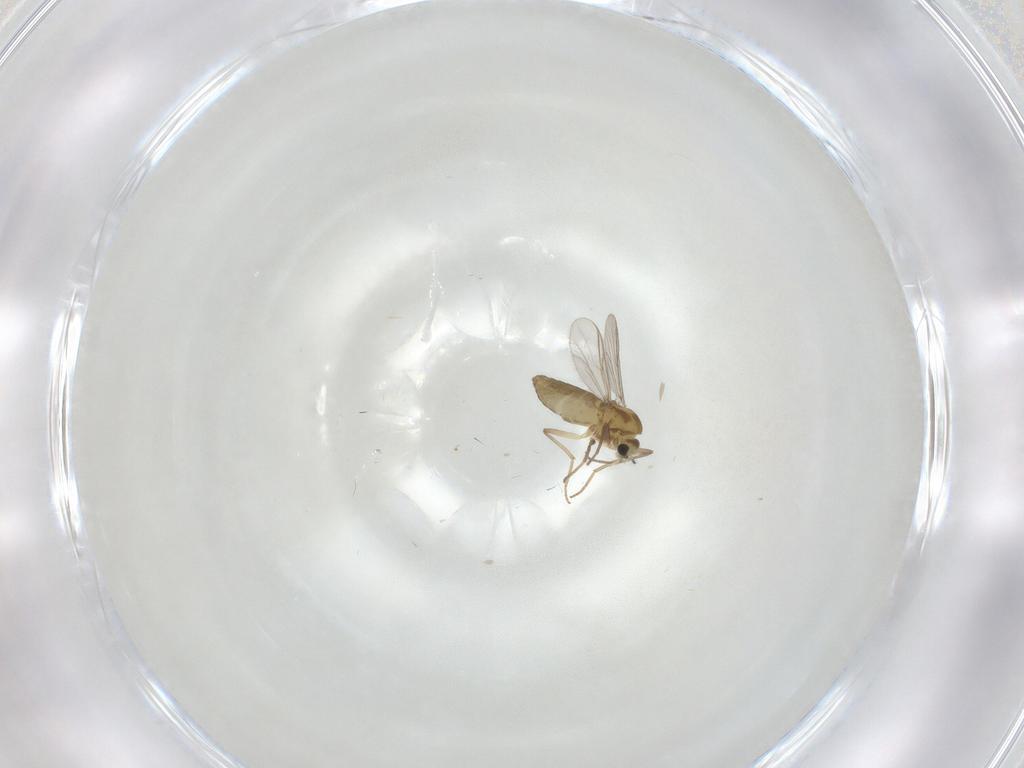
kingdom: Animalia
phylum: Arthropoda
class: Insecta
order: Diptera
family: Chironomidae
